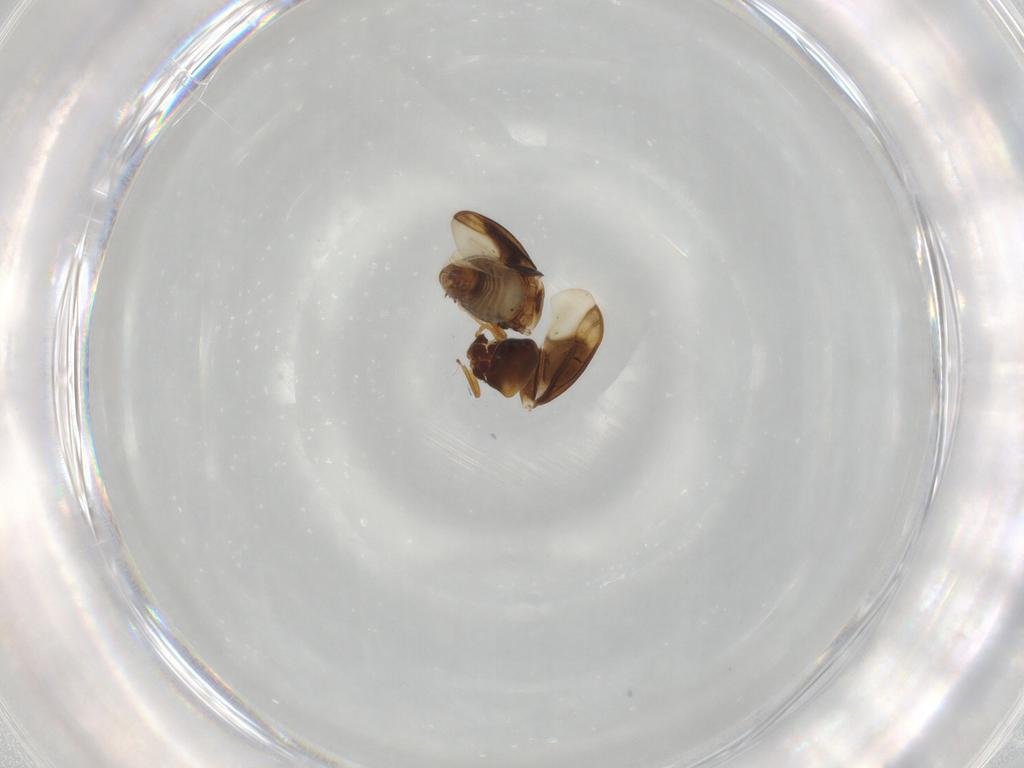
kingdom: Animalia
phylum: Arthropoda
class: Insecta
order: Hemiptera
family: Schizopteridae
